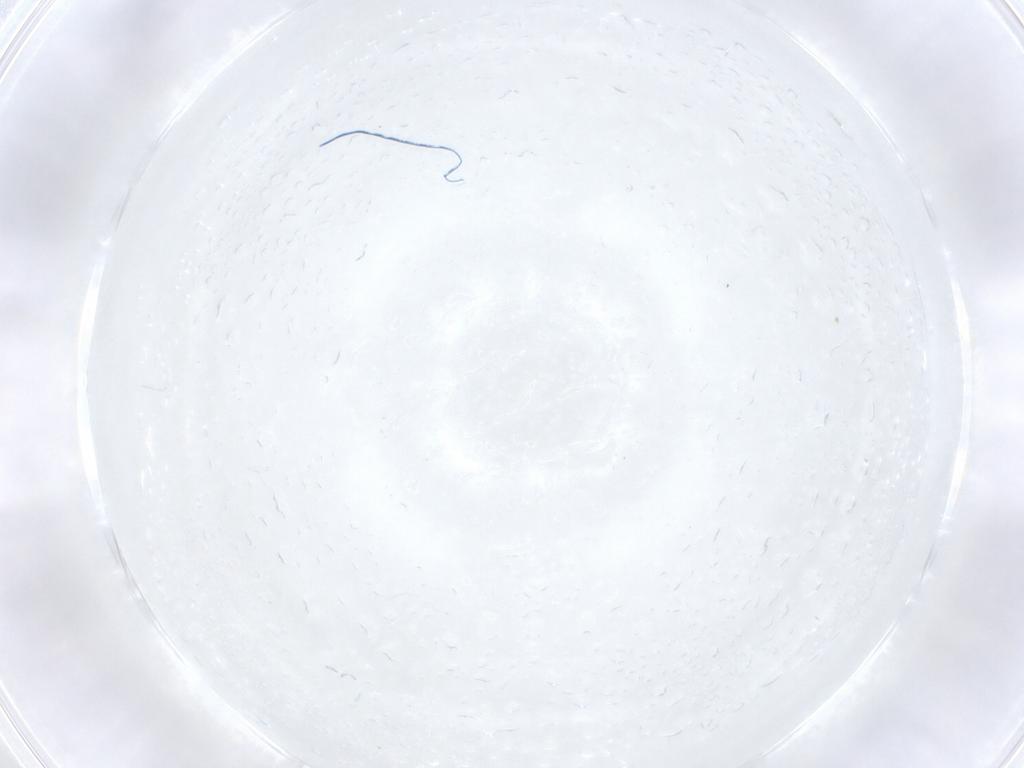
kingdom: Animalia
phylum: Arthropoda
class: Arachnida
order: Trombidiformes
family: Eupodidae
